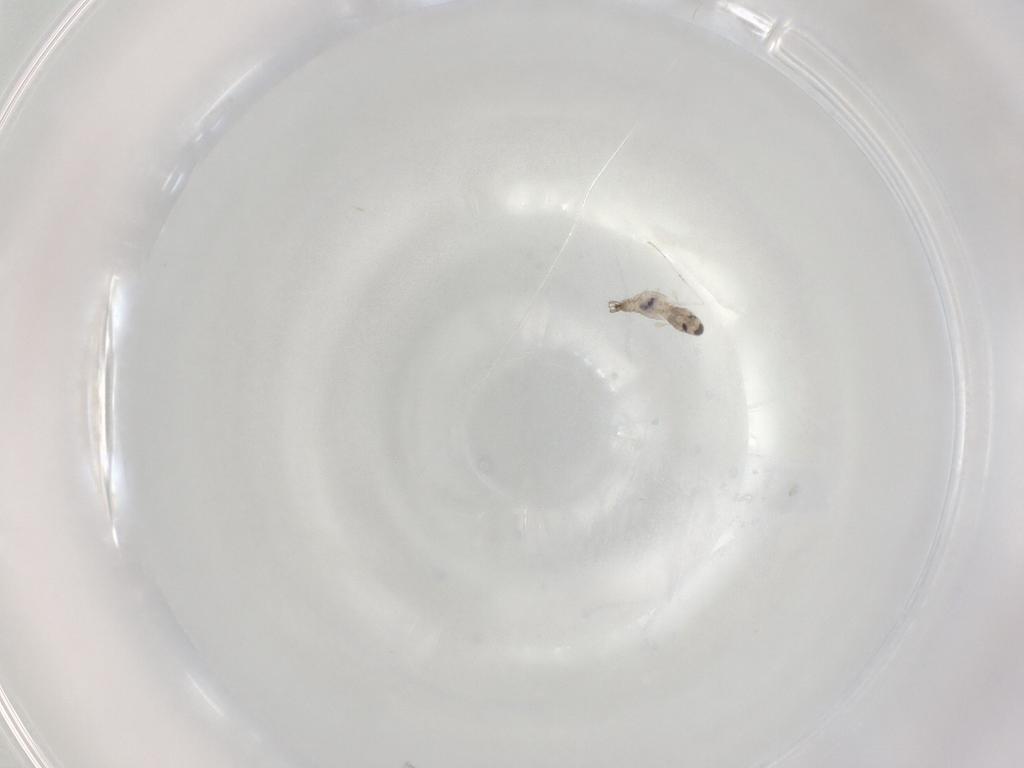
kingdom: Animalia
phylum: Arthropoda
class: Insecta
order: Diptera
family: Cecidomyiidae
